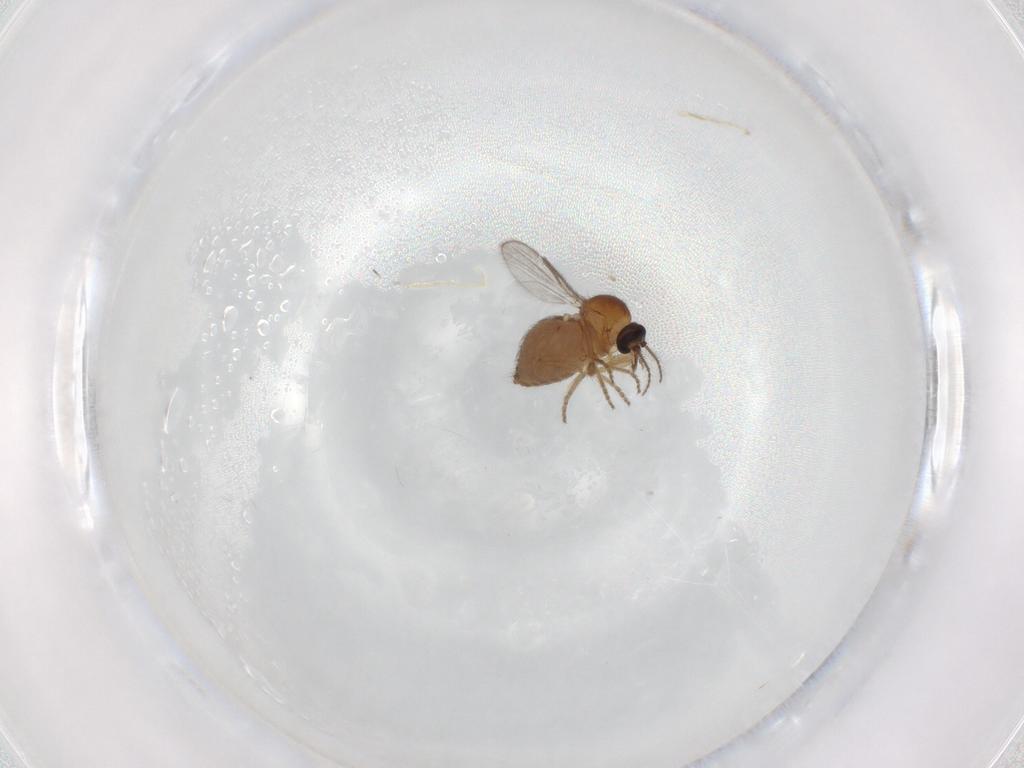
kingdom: Animalia
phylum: Arthropoda
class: Insecta
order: Diptera
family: Ceratopogonidae
